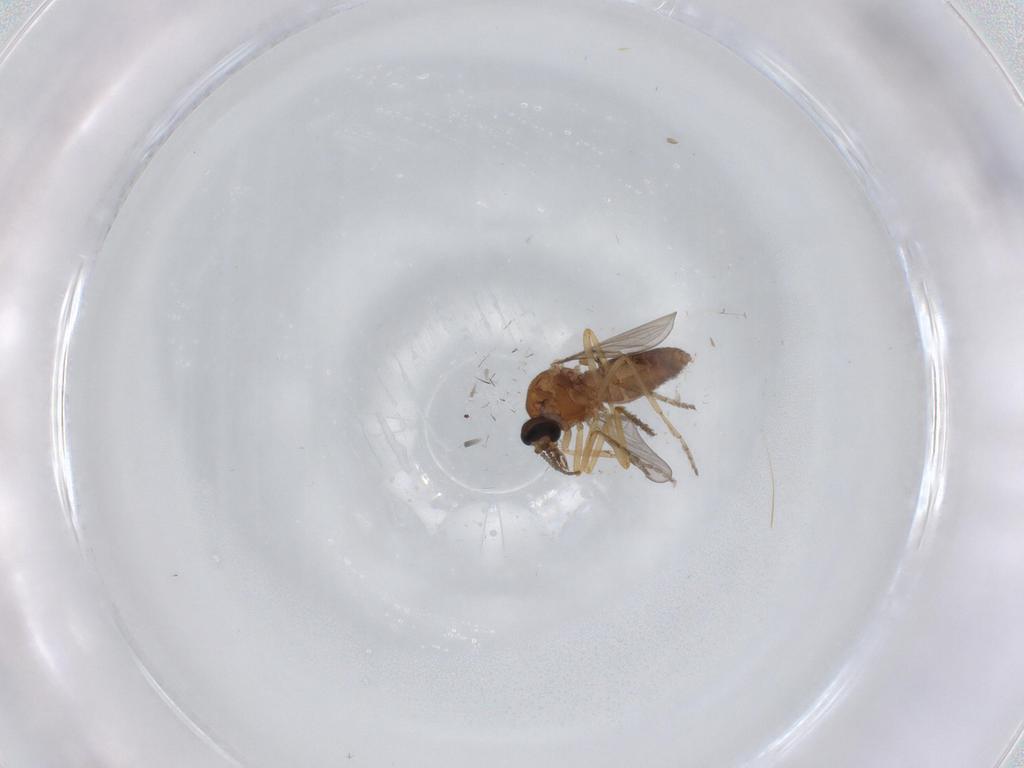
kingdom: Animalia
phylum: Arthropoda
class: Insecta
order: Diptera
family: Ceratopogonidae
